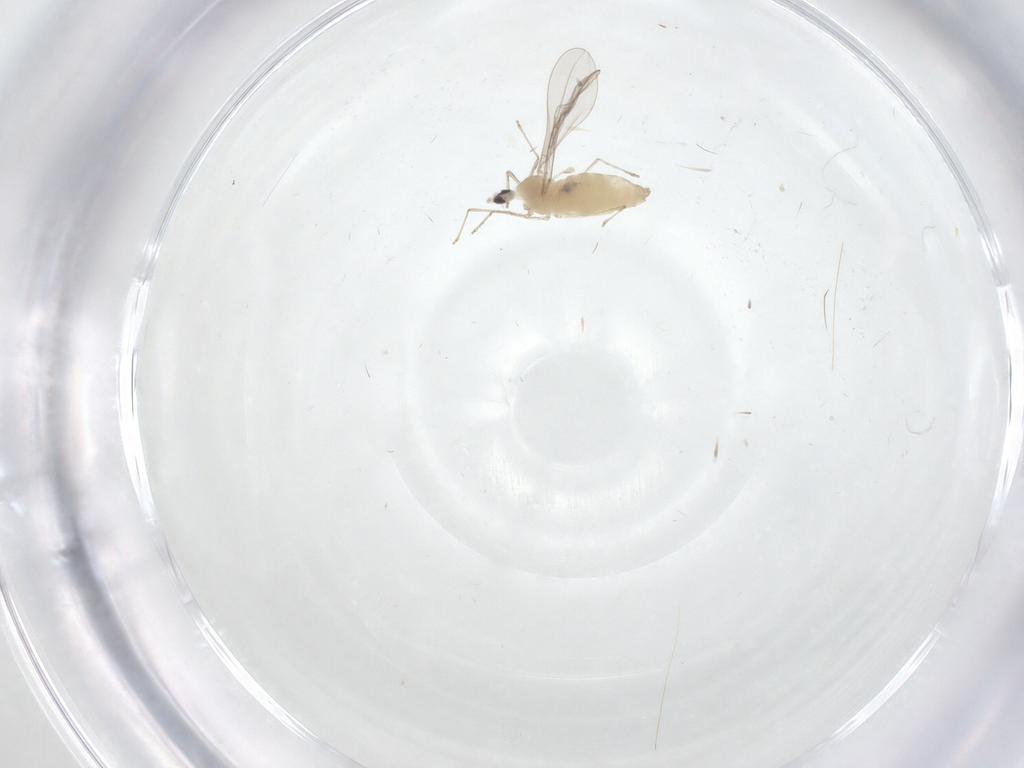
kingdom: Animalia
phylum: Arthropoda
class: Insecta
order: Diptera
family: Cecidomyiidae
